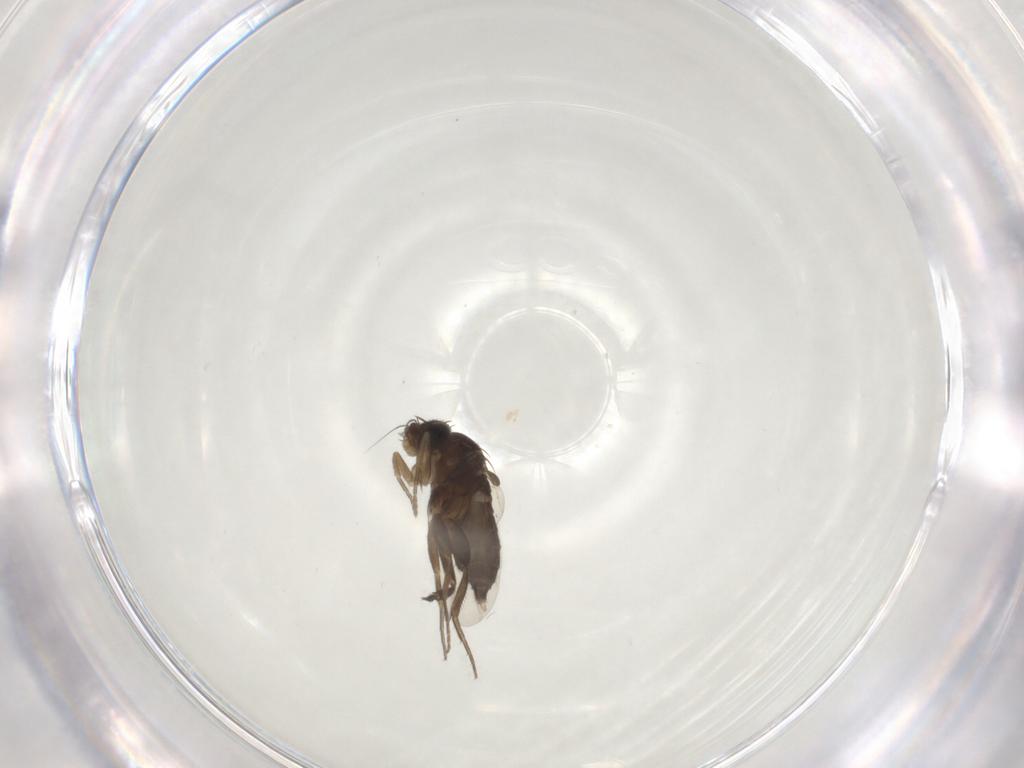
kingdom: Animalia
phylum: Arthropoda
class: Insecta
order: Diptera
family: Phoridae
